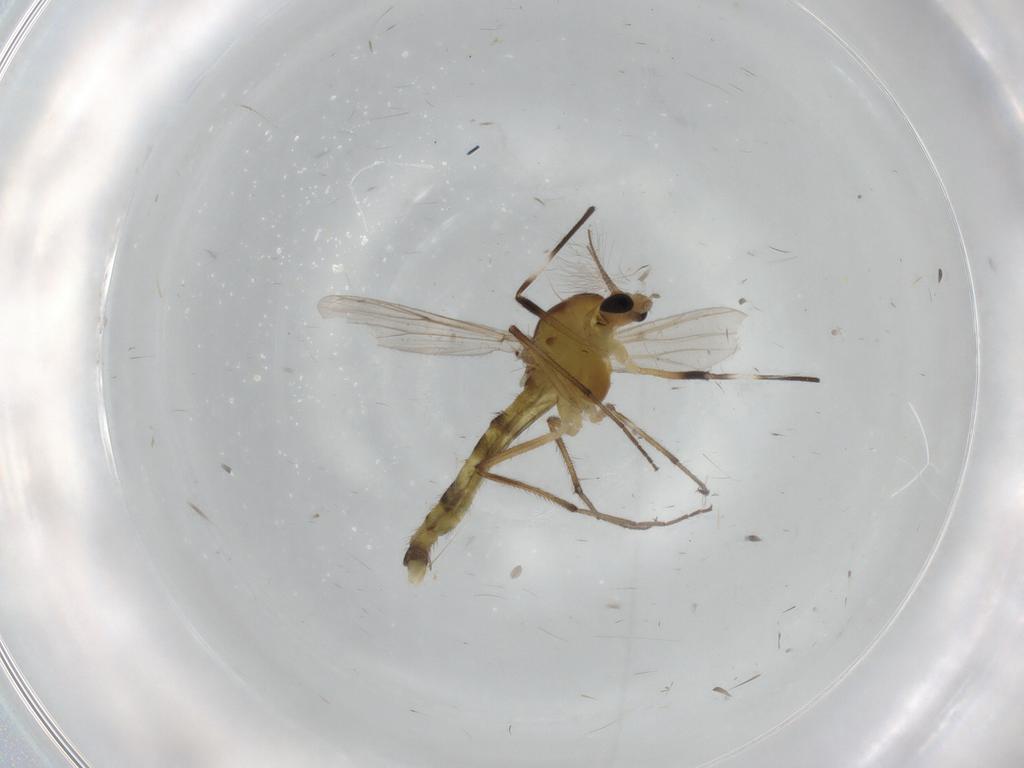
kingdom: Animalia
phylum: Arthropoda
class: Insecta
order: Diptera
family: Sciaridae
